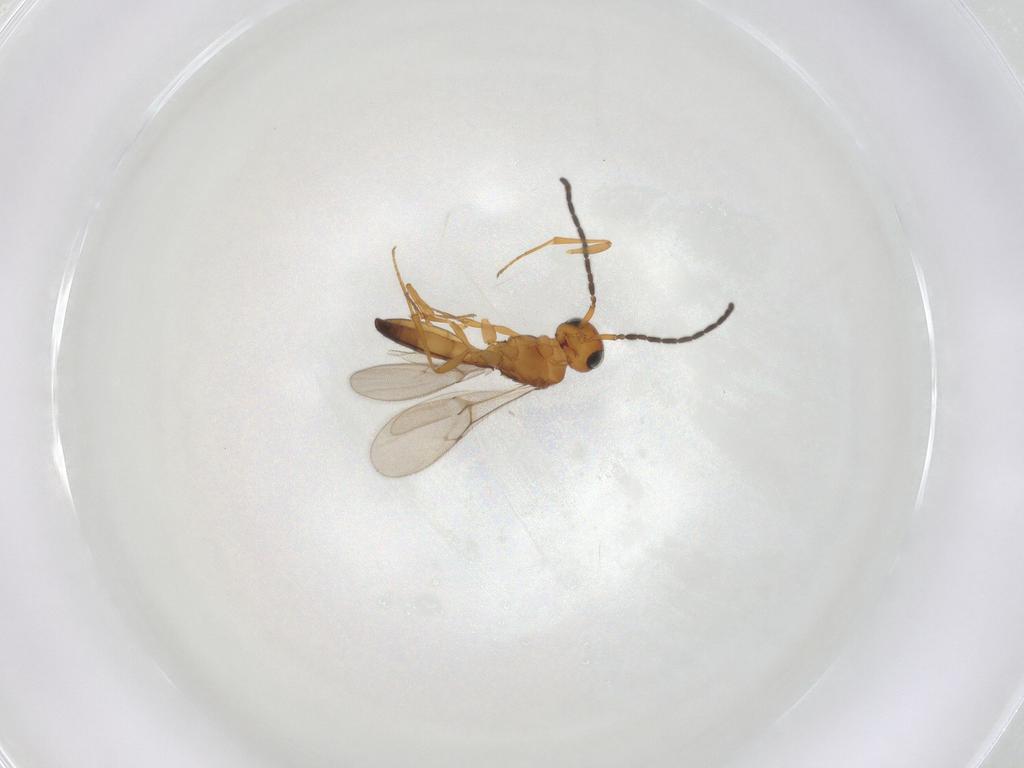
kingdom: Animalia
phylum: Arthropoda
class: Insecta
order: Hymenoptera
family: Scelionidae
